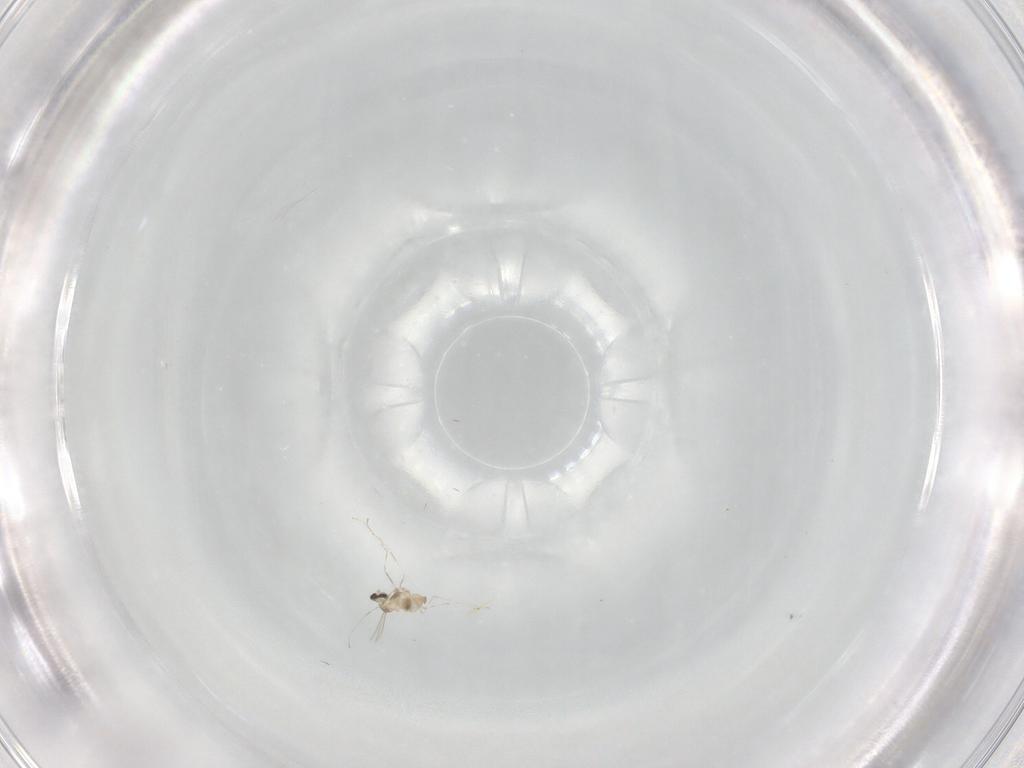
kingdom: Animalia
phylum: Arthropoda
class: Insecta
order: Diptera
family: Cecidomyiidae
